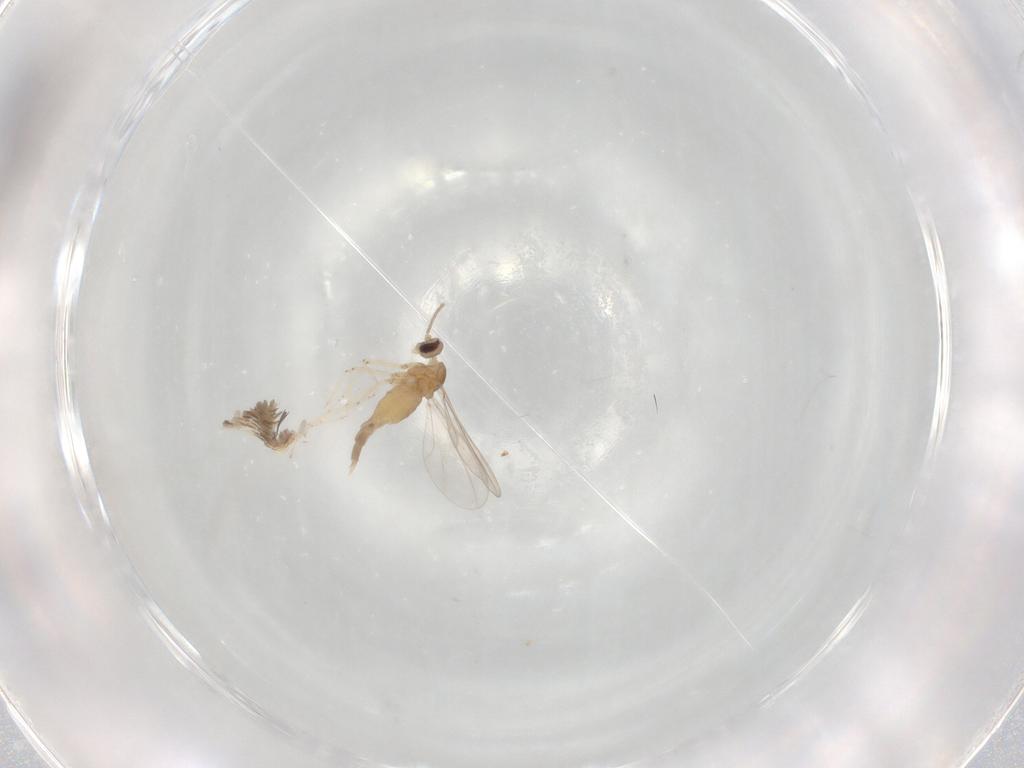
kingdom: Animalia
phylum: Arthropoda
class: Insecta
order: Diptera
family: Cecidomyiidae
